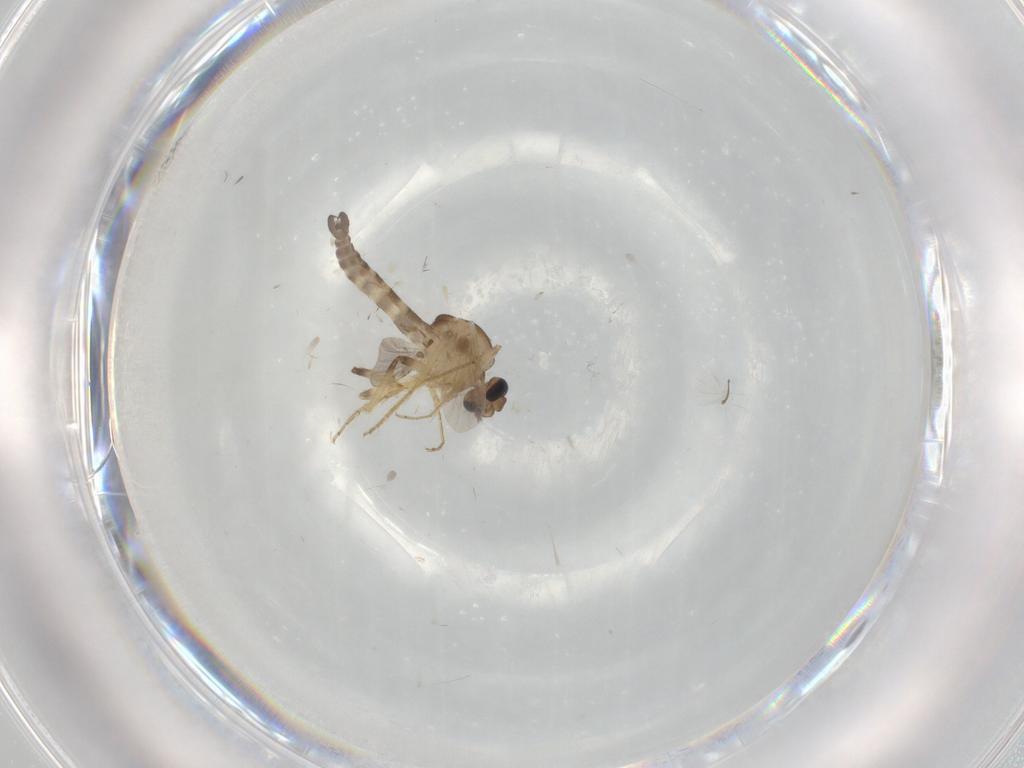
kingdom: Animalia
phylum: Arthropoda
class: Insecta
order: Diptera
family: Ceratopogonidae
